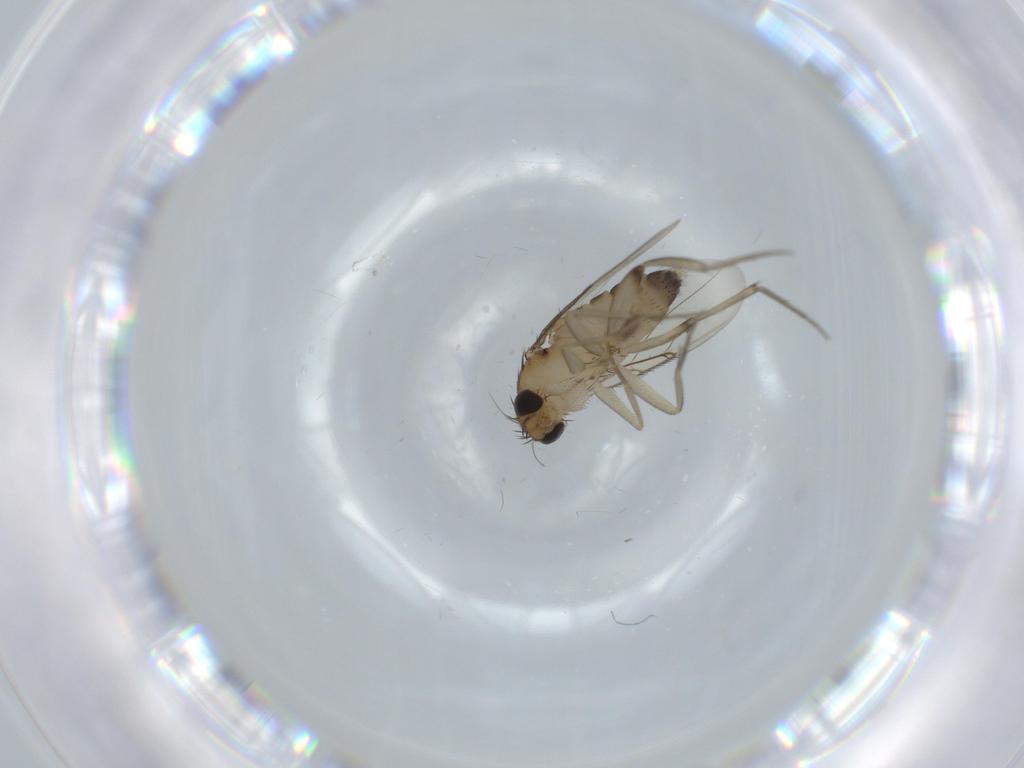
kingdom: Animalia
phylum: Arthropoda
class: Insecta
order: Diptera
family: Phoridae
